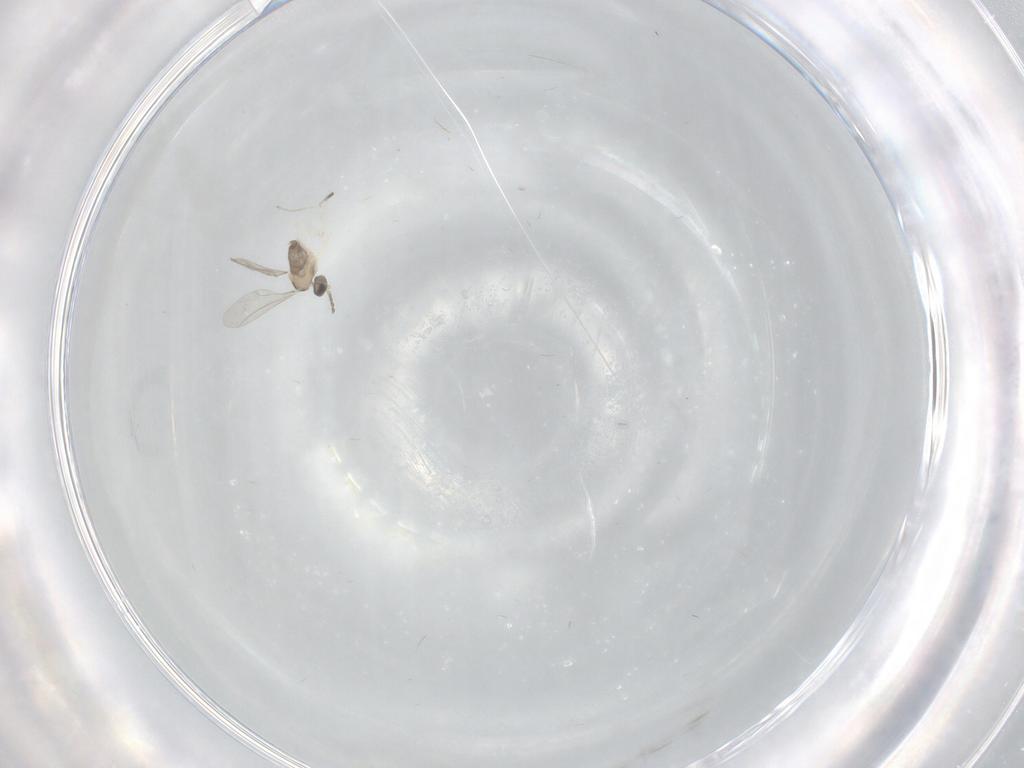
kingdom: Animalia
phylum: Arthropoda
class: Insecta
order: Diptera
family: Cecidomyiidae
